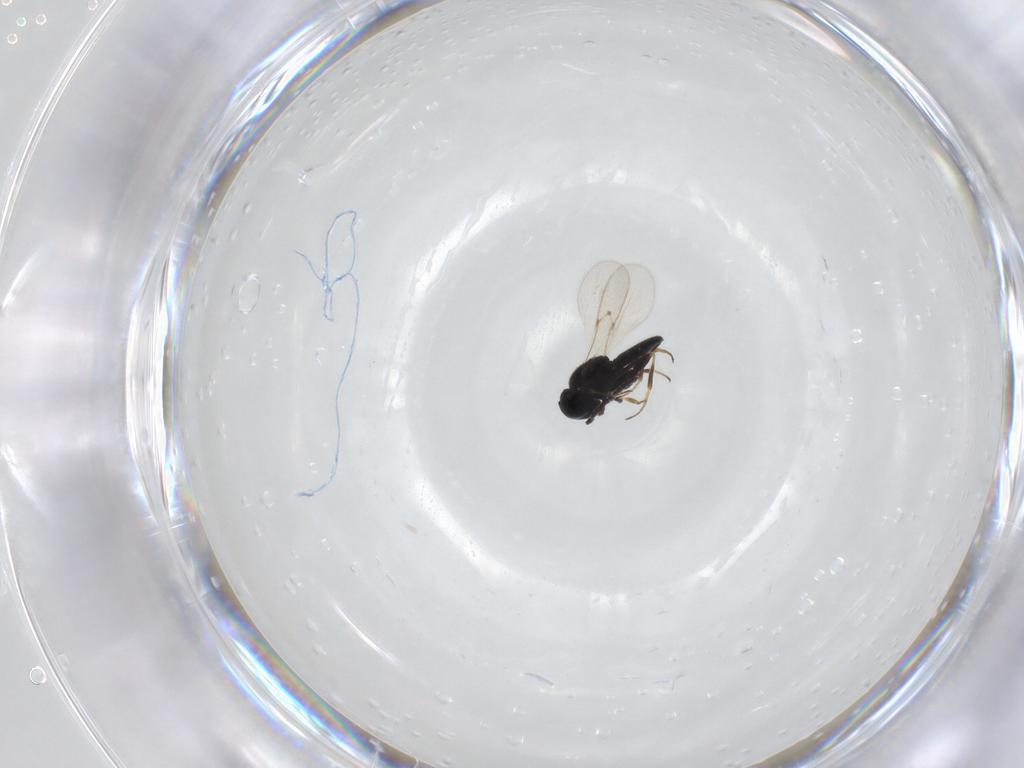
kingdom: Animalia
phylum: Arthropoda
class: Insecta
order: Hymenoptera
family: Scelionidae
